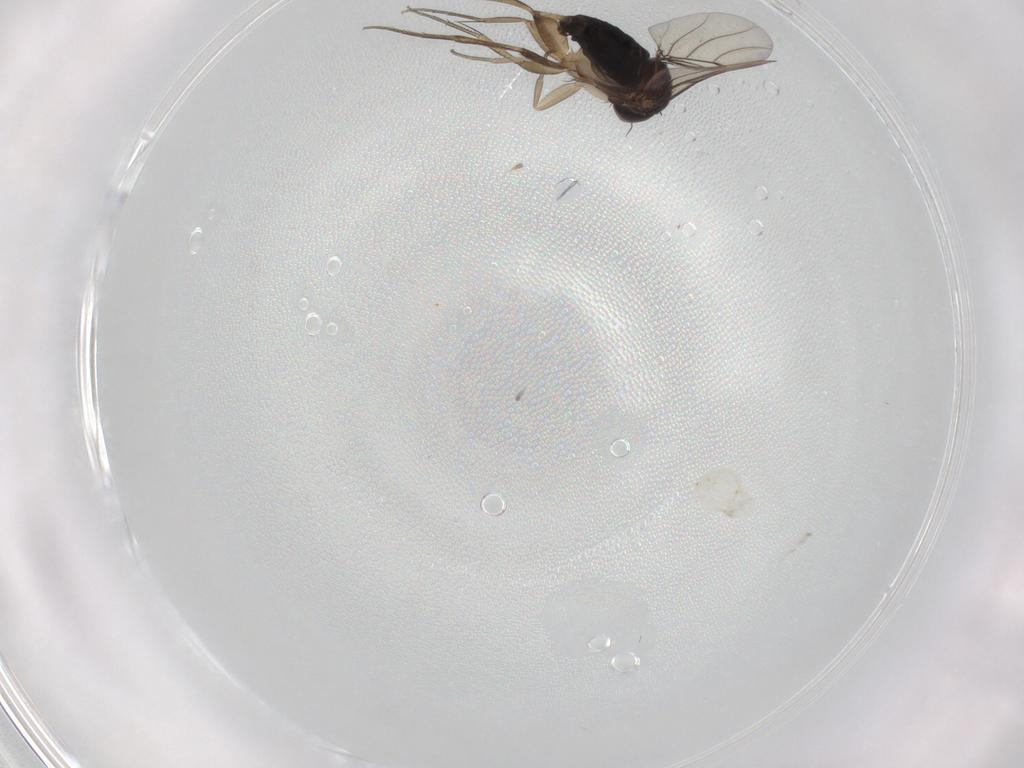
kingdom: Animalia
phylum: Arthropoda
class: Insecta
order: Diptera
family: Phoridae
